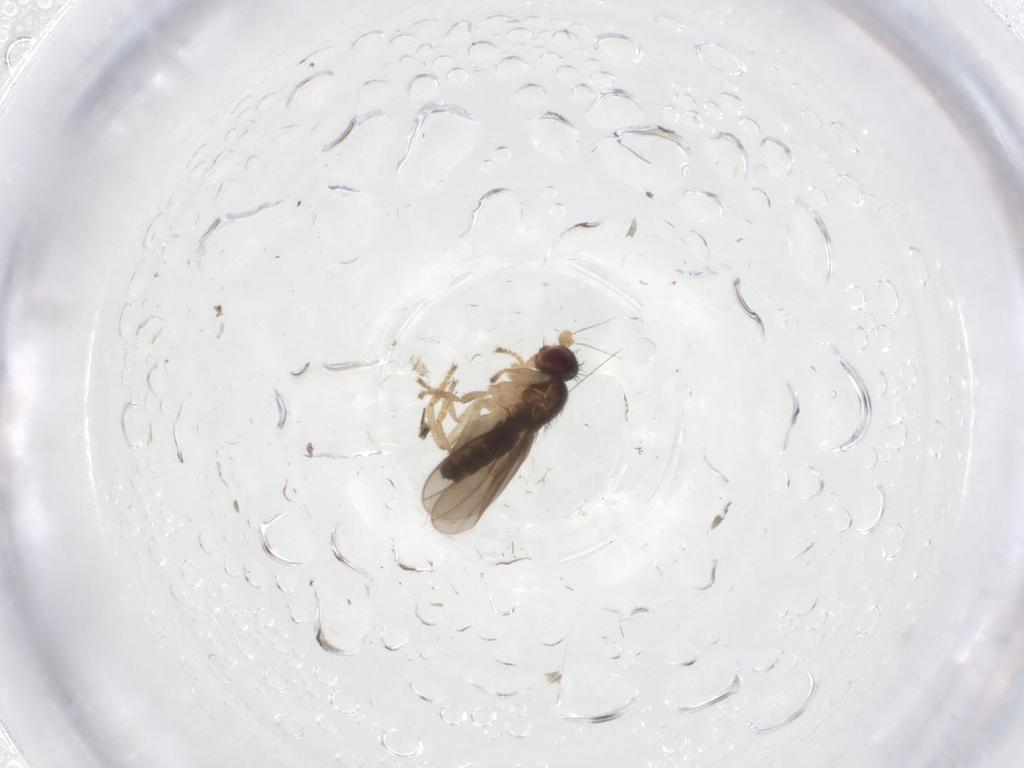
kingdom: Animalia
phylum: Arthropoda
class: Insecta
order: Diptera
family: Sphaeroceridae
